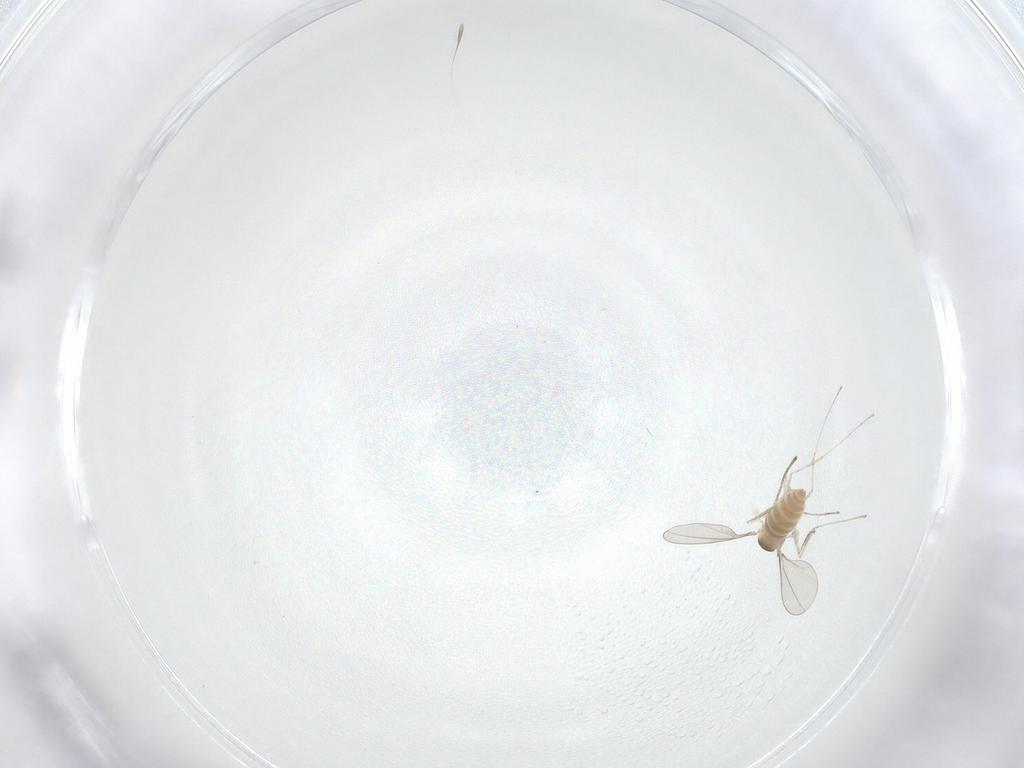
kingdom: Animalia
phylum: Arthropoda
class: Insecta
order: Diptera
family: Cecidomyiidae
